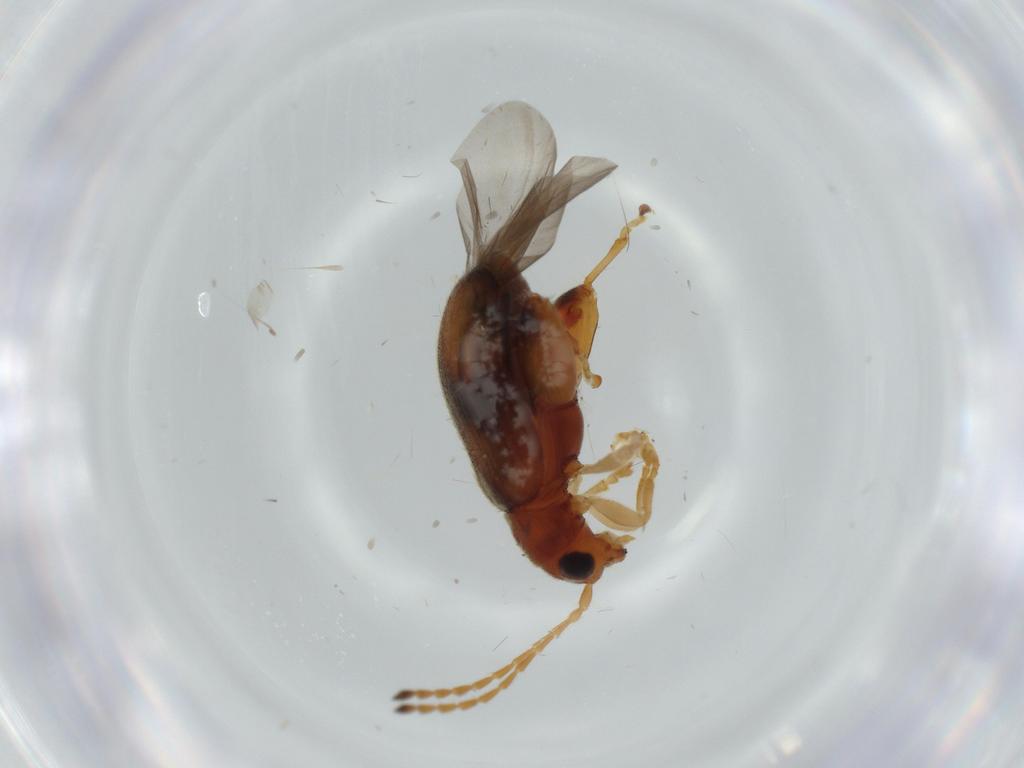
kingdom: Animalia
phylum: Arthropoda
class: Insecta
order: Coleoptera
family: Chrysomelidae
